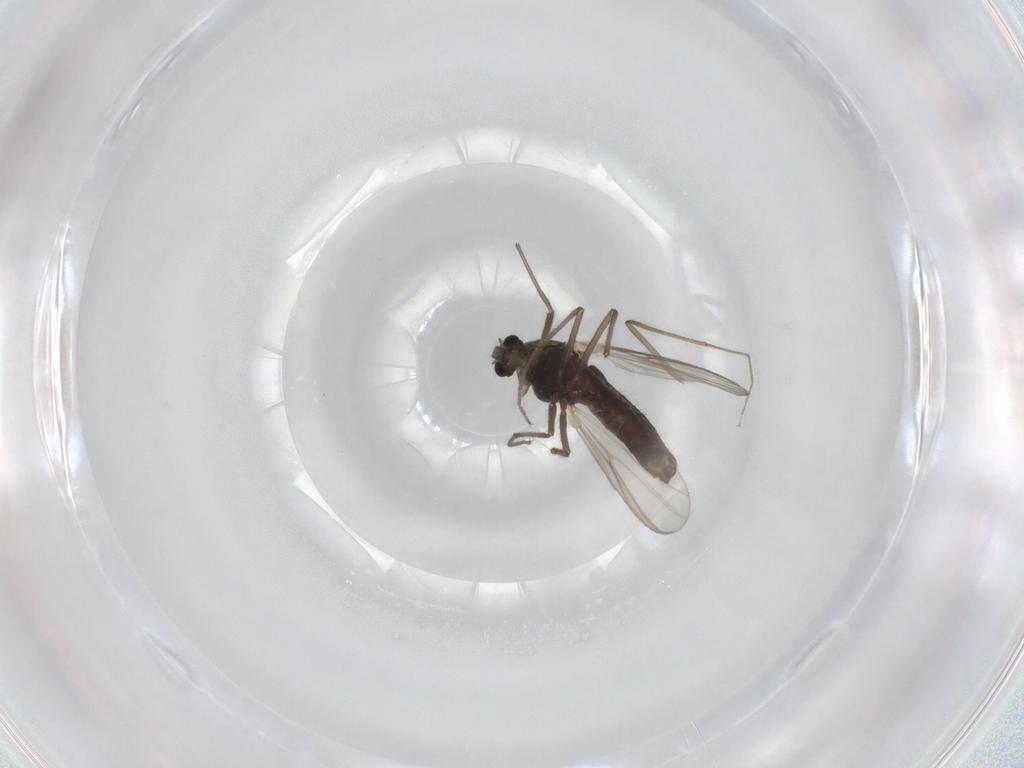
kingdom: Animalia
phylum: Arthropoda
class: Insecta
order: Diptera
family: Chironomidae
